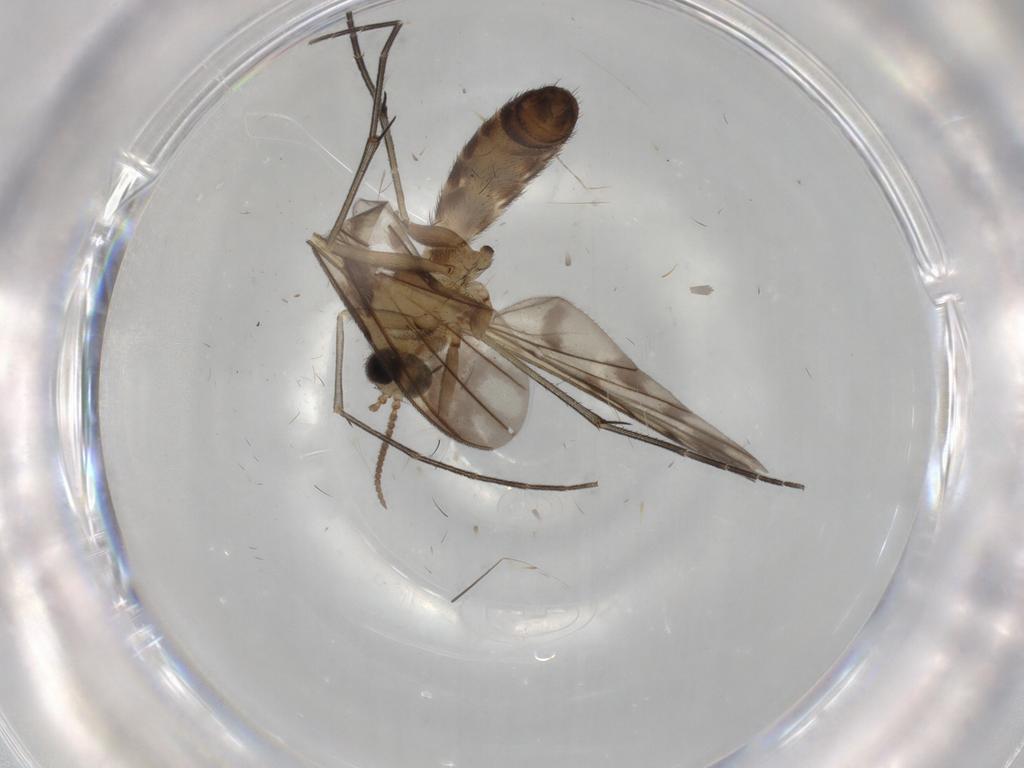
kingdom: Animalia
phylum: Arthropoda
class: Insecta
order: Diptera
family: Keroplatidae
